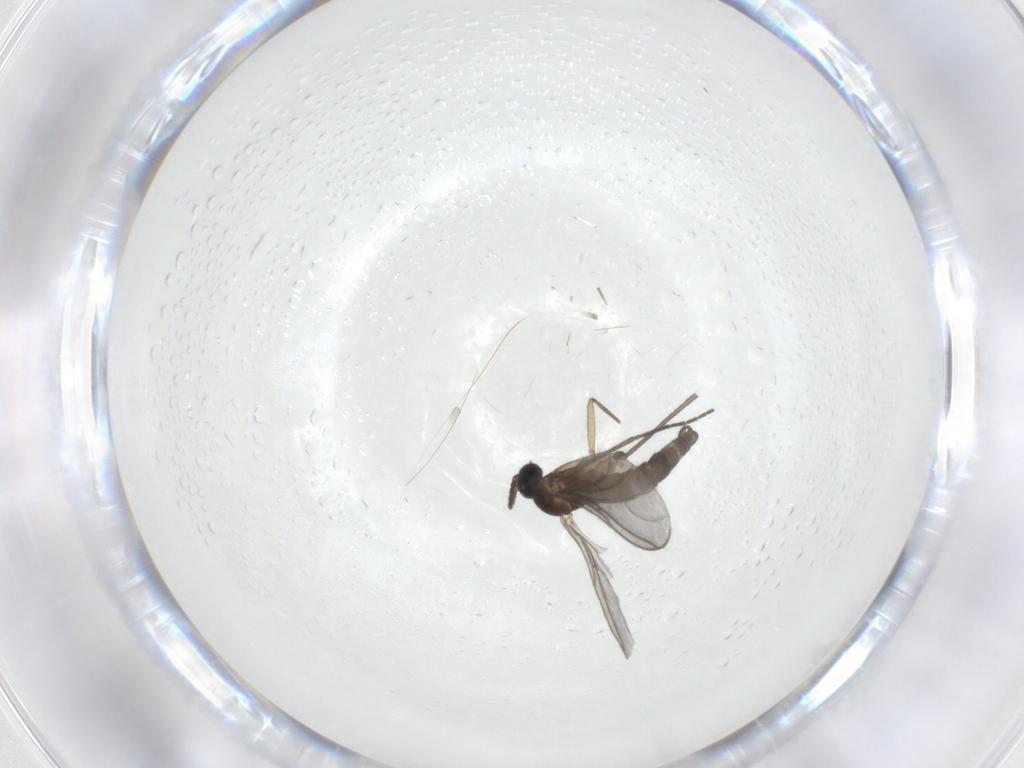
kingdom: Animalia
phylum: Arthropoda
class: Insecta
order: Diptera
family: Sciaridae
